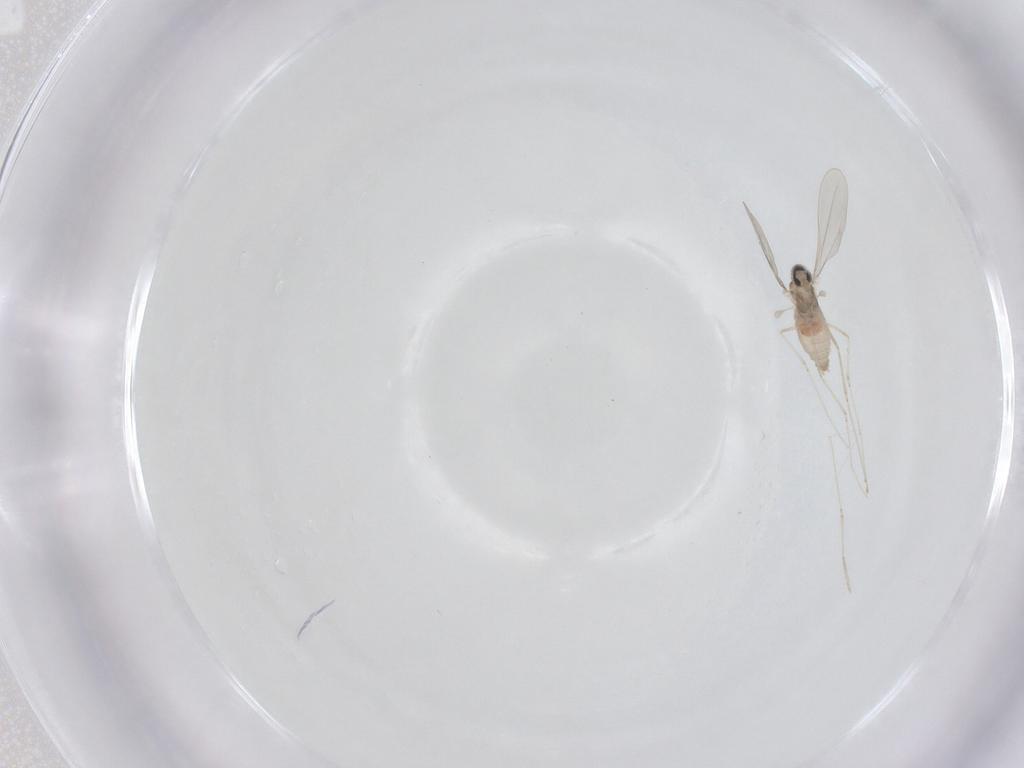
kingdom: Animalia
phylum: Arthropoda
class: Insecta
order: Diptera
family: Cecidomyiidae
